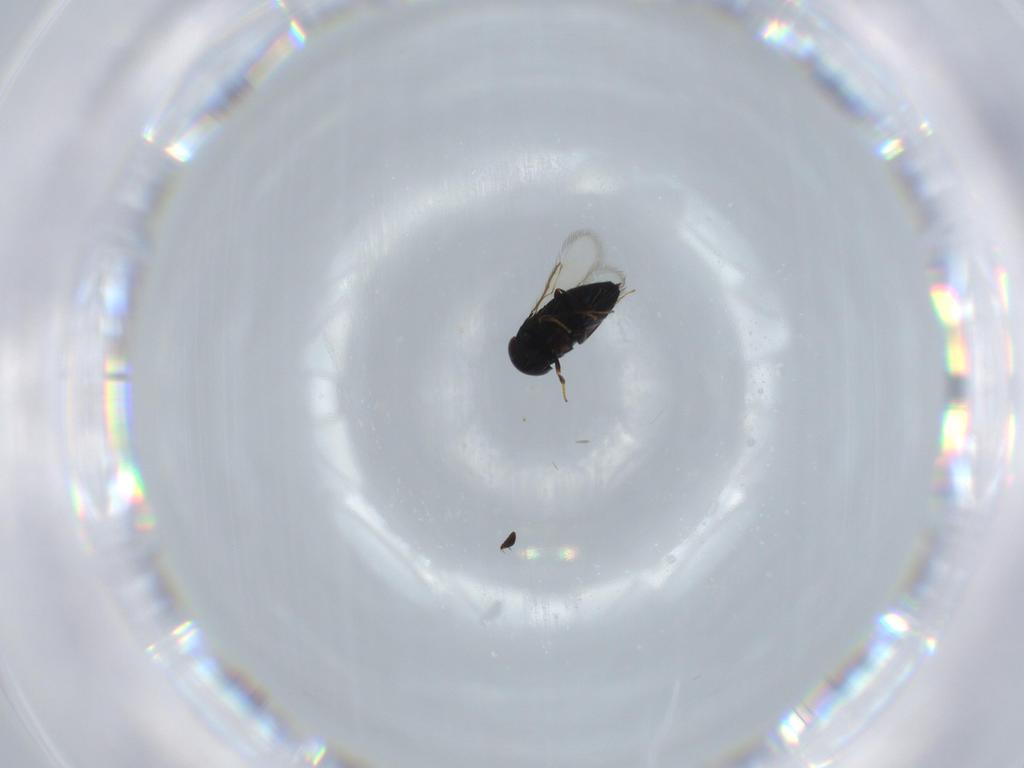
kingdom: Animalia
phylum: Arthropoda
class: Insecta
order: Hymenoptera
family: Signiphoridae
